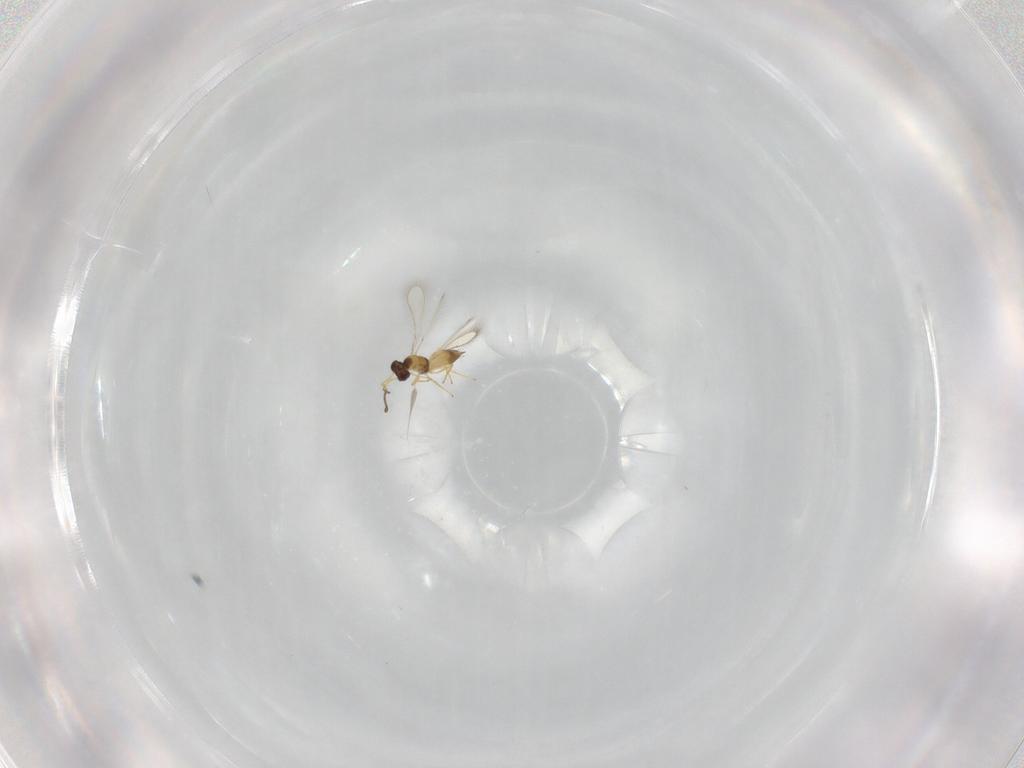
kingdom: Animalia
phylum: Arthropoda
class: Insecta
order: Hymenoptera
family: Mymaridae
